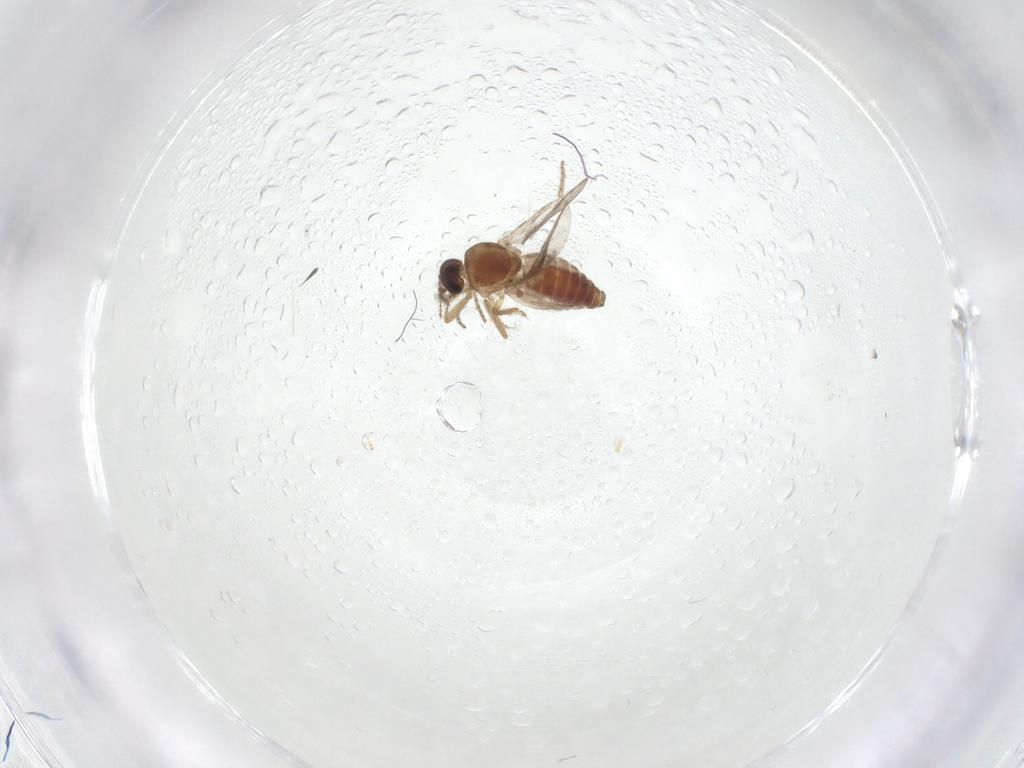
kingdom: Animalia
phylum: Arthropoda
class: Insecta
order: Diptera
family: Ceratopogonidae
